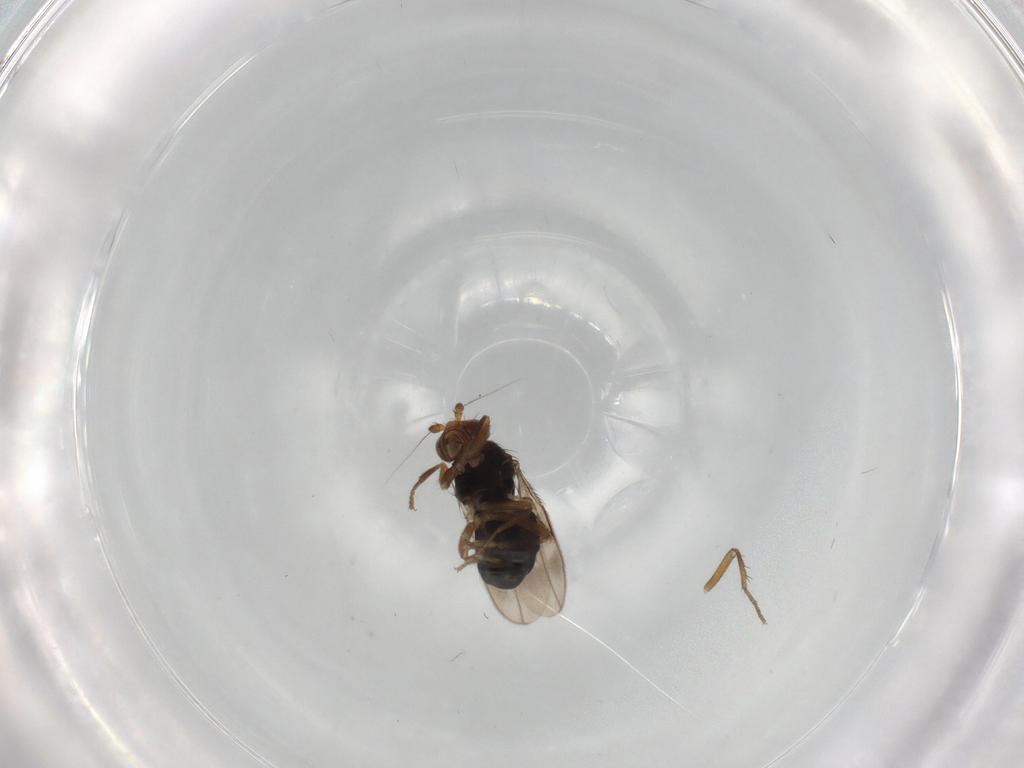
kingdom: Animalia
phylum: Arthropoda
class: Insecta
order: Diptera
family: Sphaeroceridae
